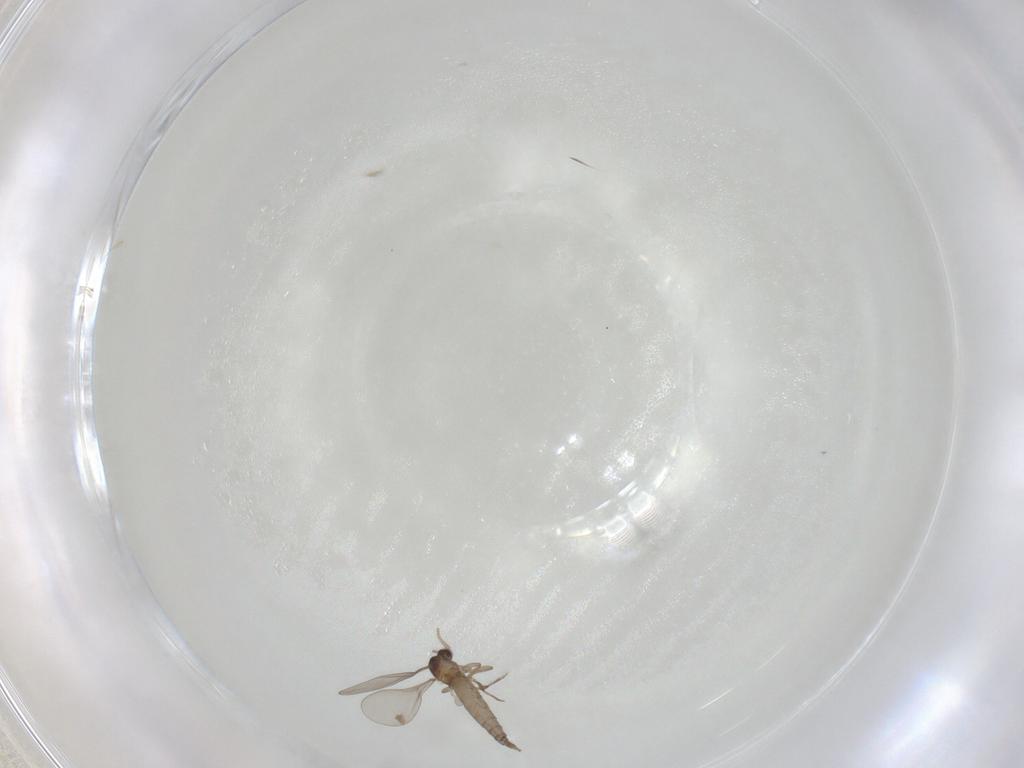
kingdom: Animalia
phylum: Arthropoda
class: Insecta
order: Diptera
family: Cecidomyiidae
